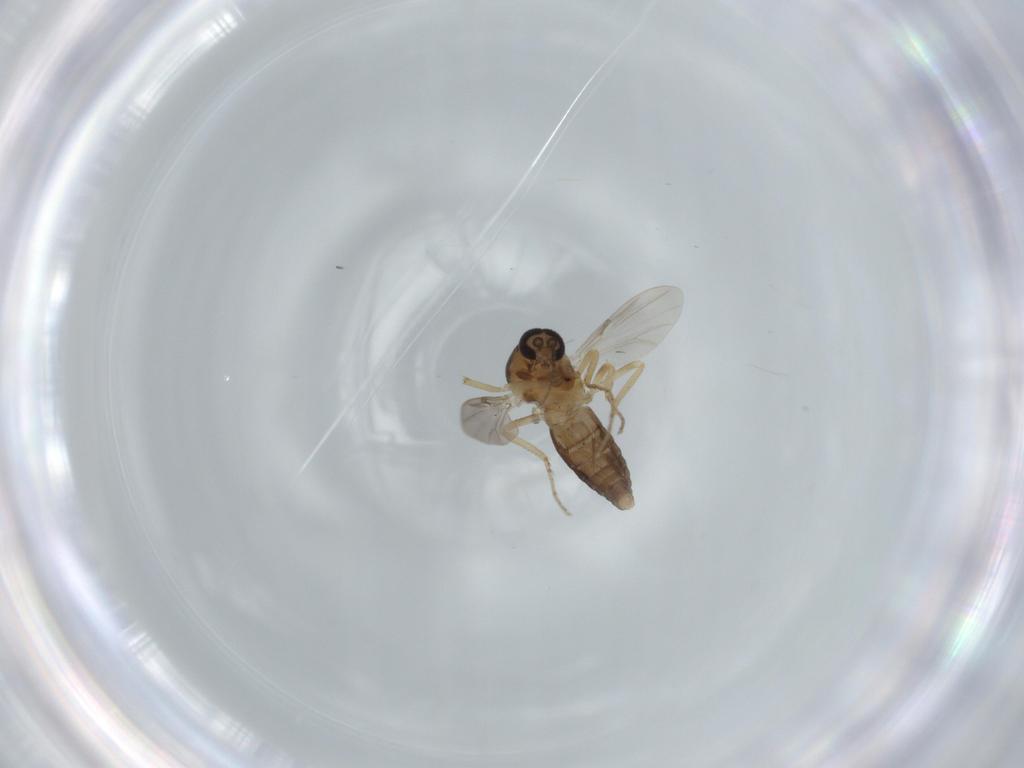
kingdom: Animalia
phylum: Arthropoda
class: Insecta
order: Diptera
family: Ceratopogonidae
